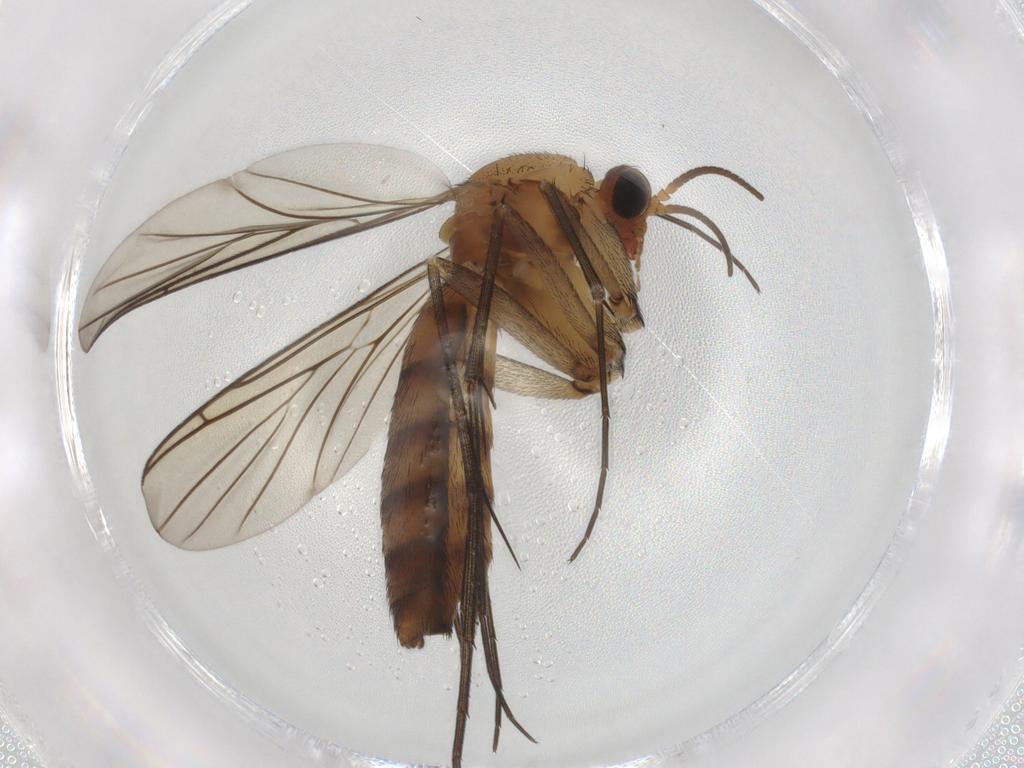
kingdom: Animalia
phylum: Arthropoda
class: Insecta
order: Diptera
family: Keroplatidae
